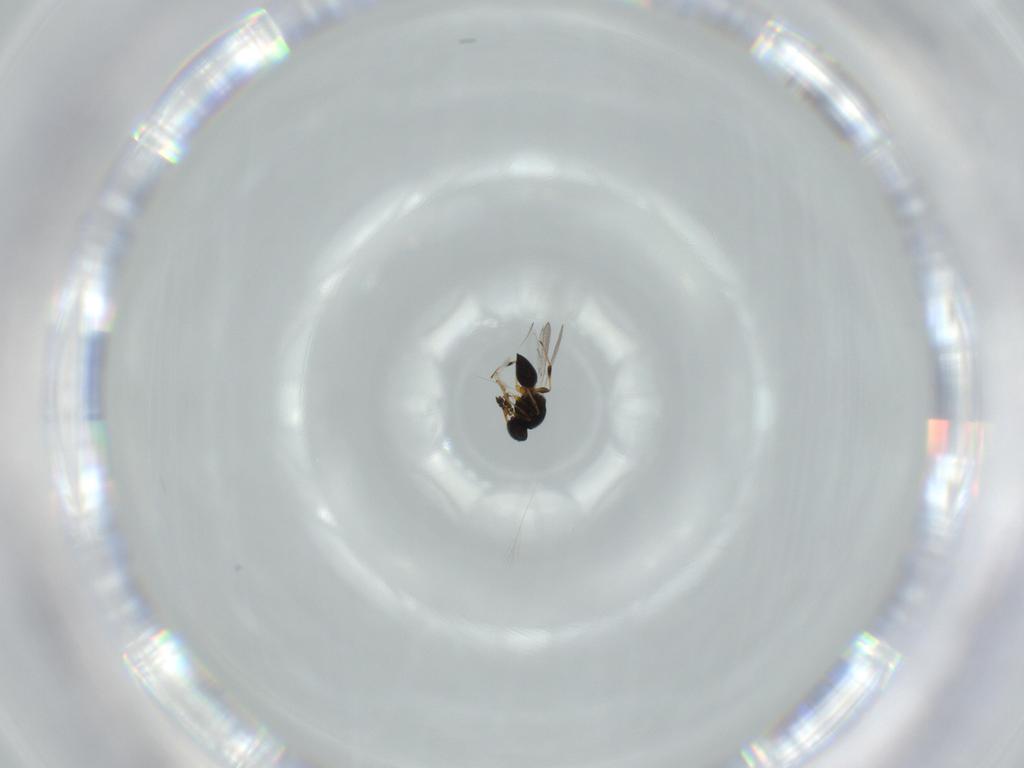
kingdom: Animalia
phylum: Arthropoda
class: Insecta
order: Hymenoptera
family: Platygastridae
